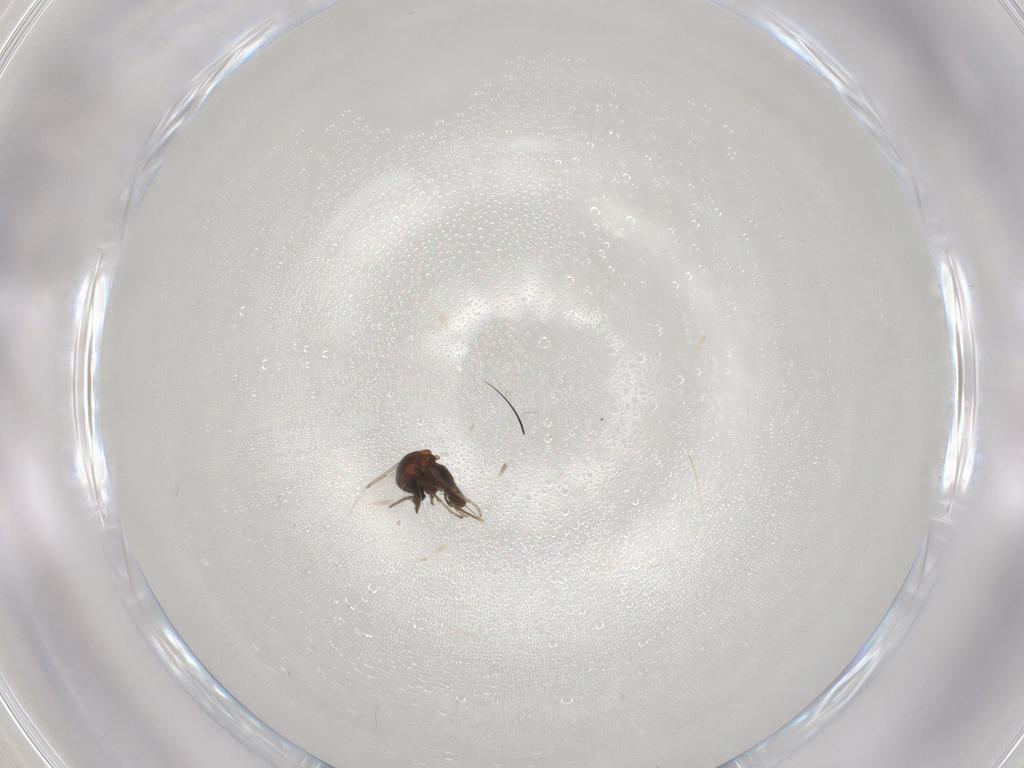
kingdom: Animalia
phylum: Arthropoda
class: Insecta
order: Diptera
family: Ceratopogonidae
